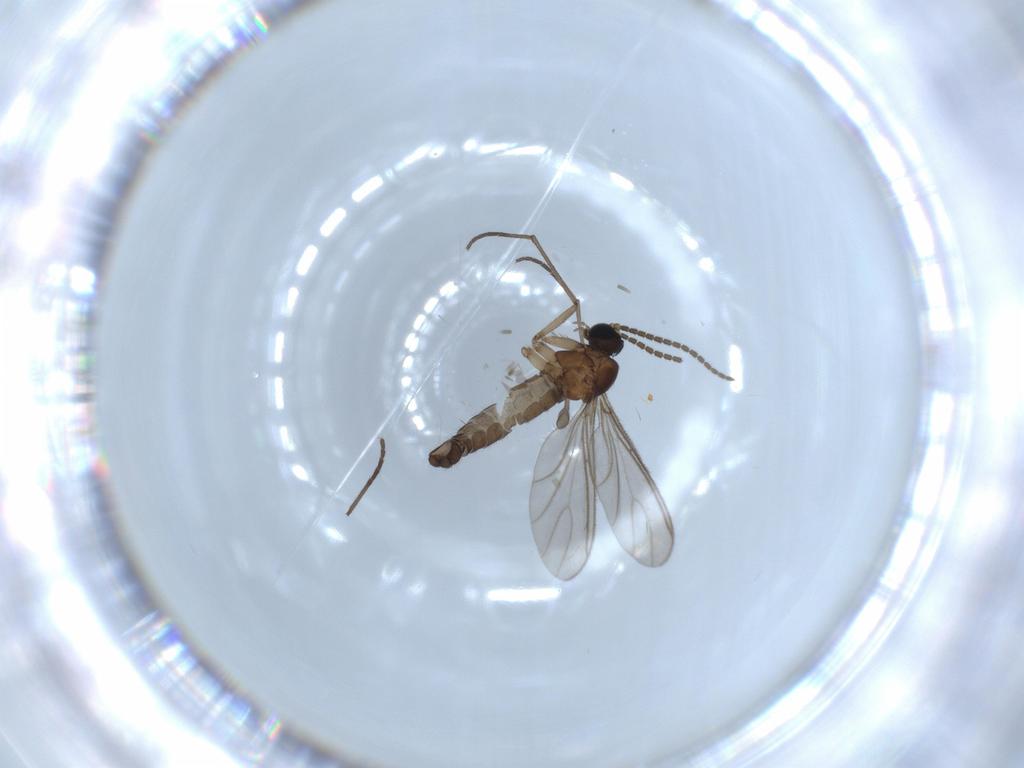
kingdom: Animalia
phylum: Arthropoda
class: Insecta
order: Diptera
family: Sciaridae
